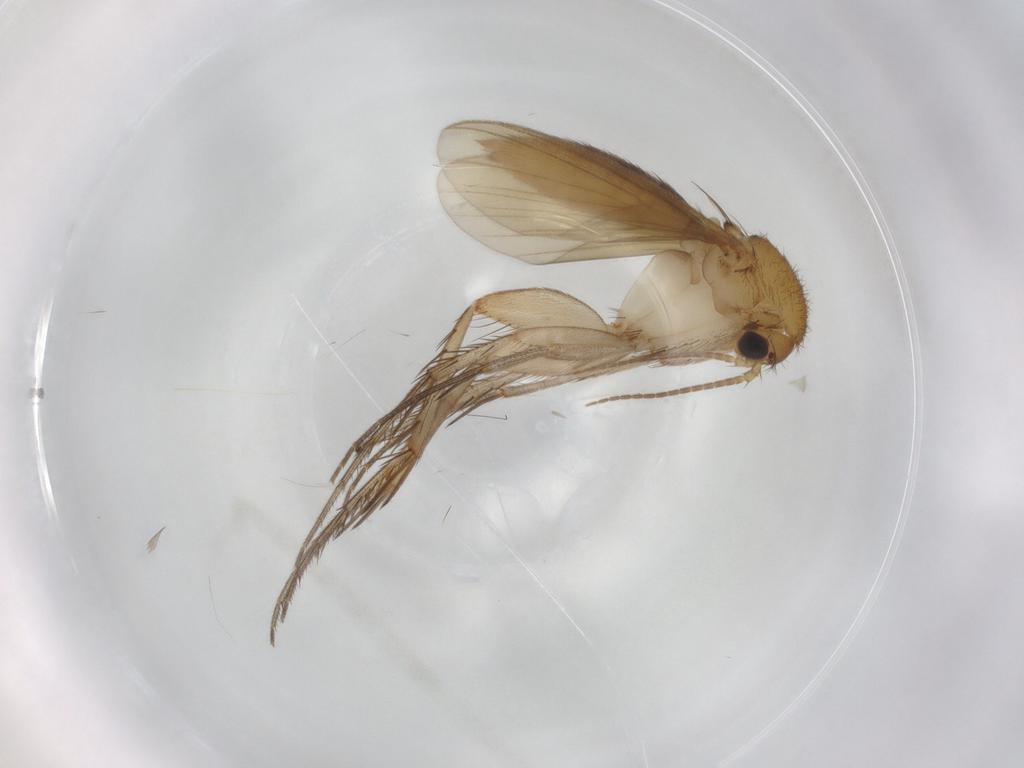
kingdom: Animalia
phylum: Arthropoda
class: Insecta
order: Diptera
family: Mycetophilidae
